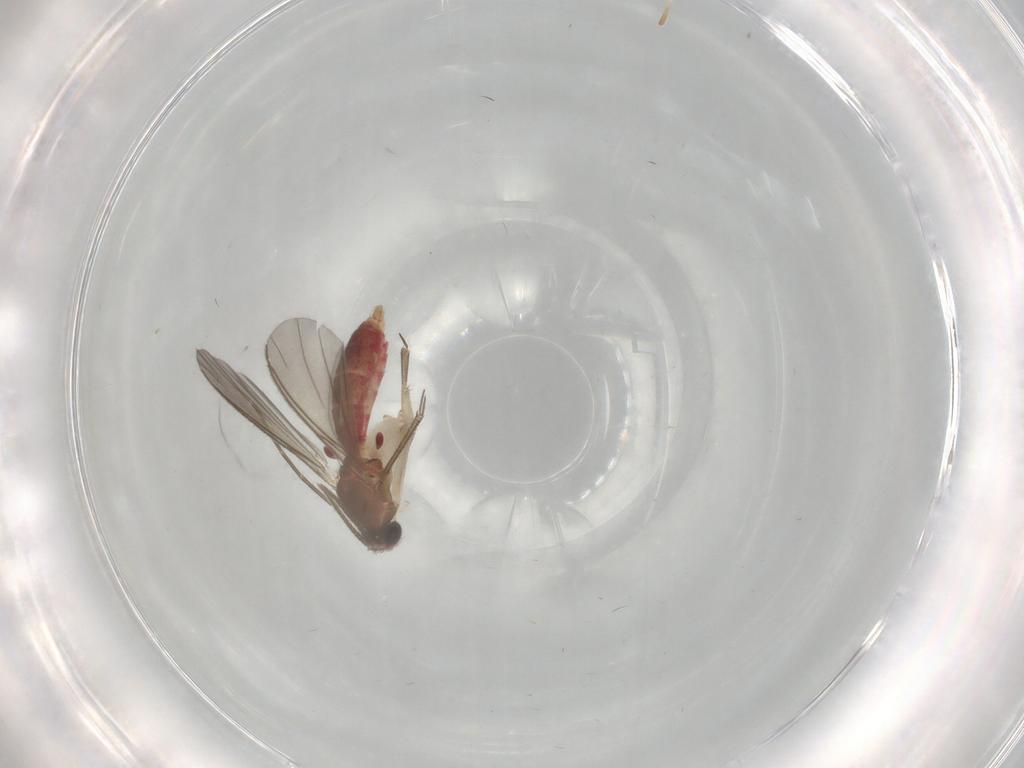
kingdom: Animalia
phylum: Arthropoda
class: Insecta
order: Diptera
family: Mycetophilidae
